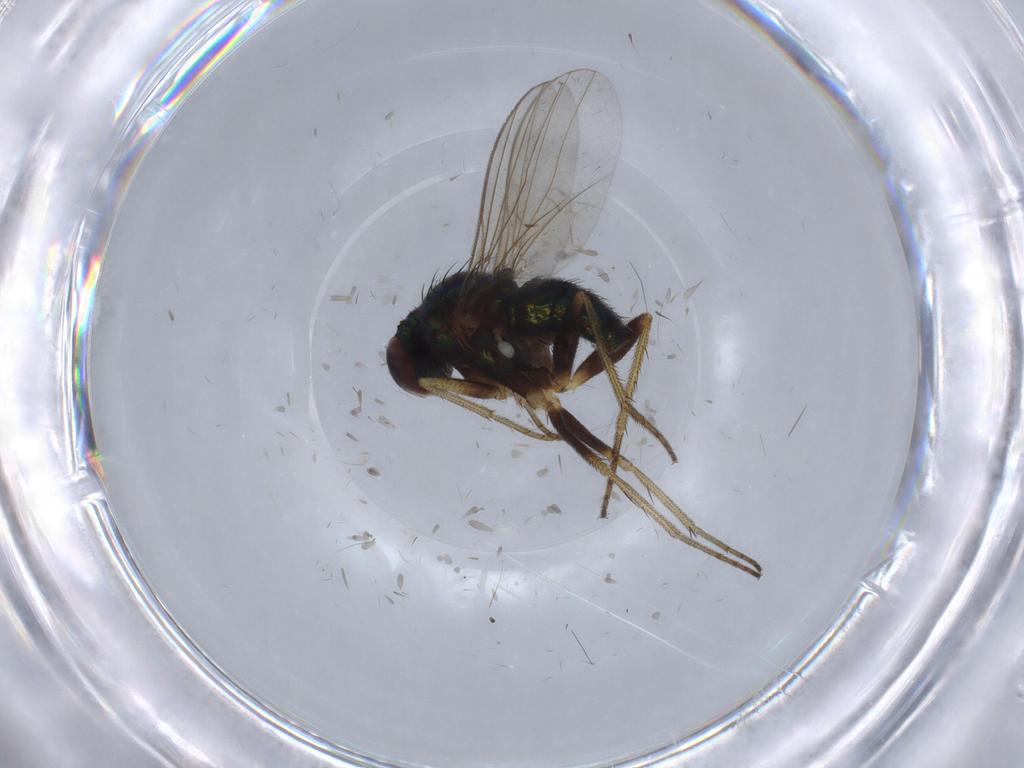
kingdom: Animalia
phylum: Arthropoda
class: Insecta
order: Diptera
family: Dolichopodidae
